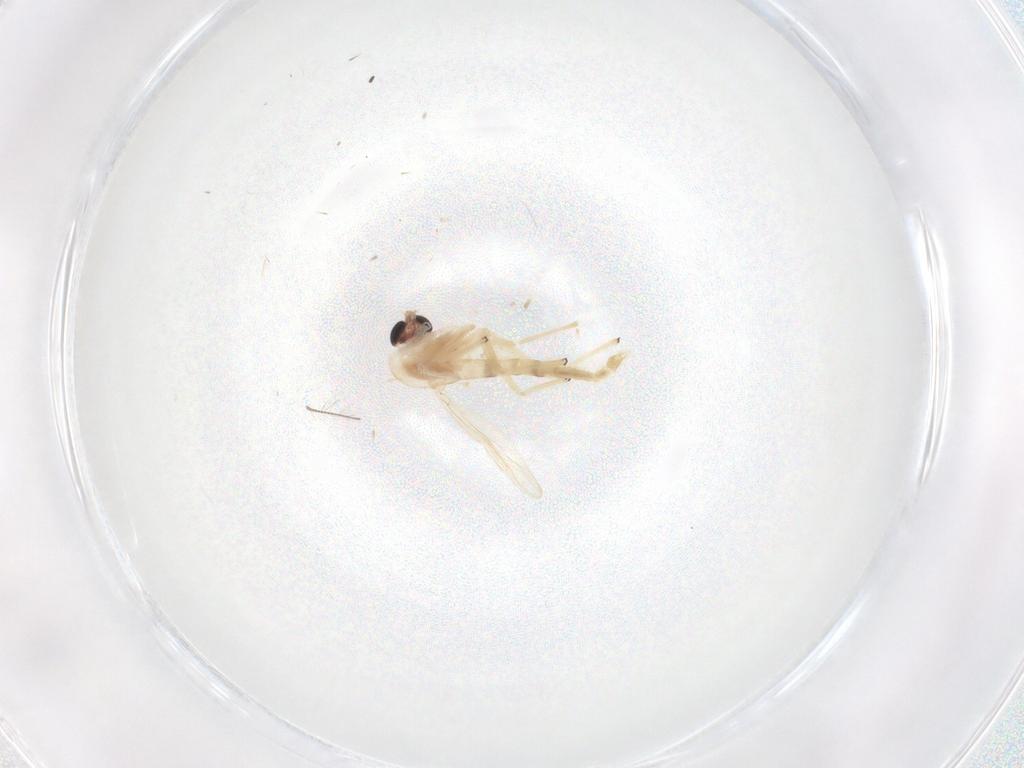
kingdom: Animalia
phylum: Arthropoda
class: Insecta
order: Diptera
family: Chironomidae
